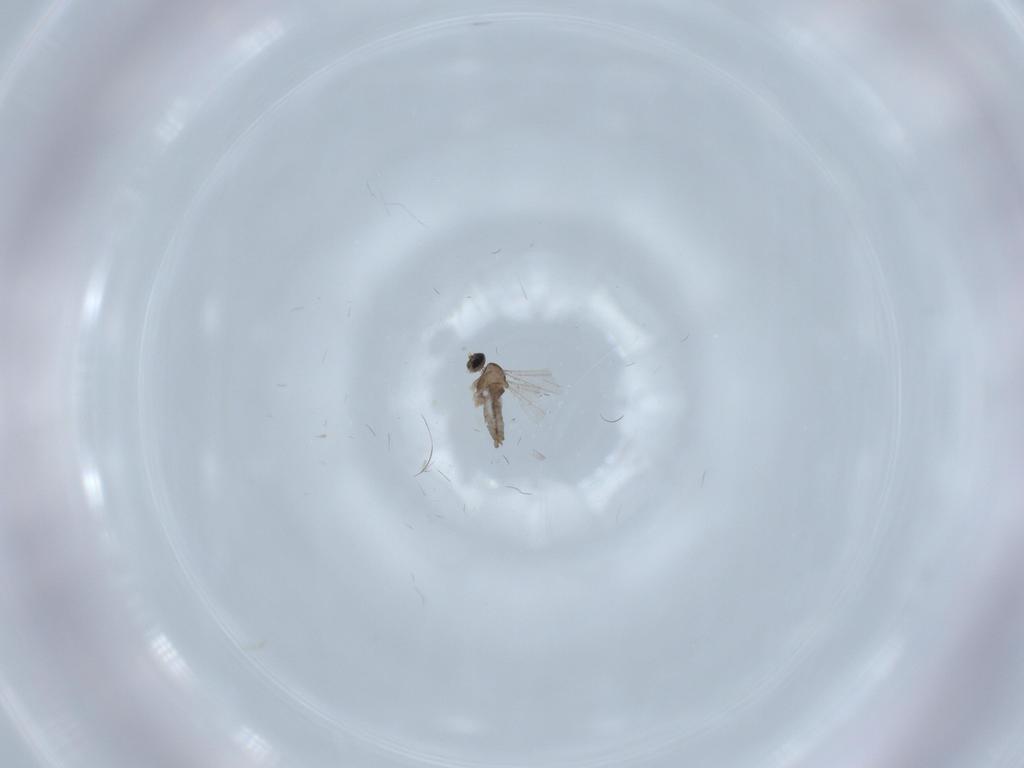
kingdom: Animalia
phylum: Arthropoda
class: Insecta
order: Diptera
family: Cecidomyiidae
